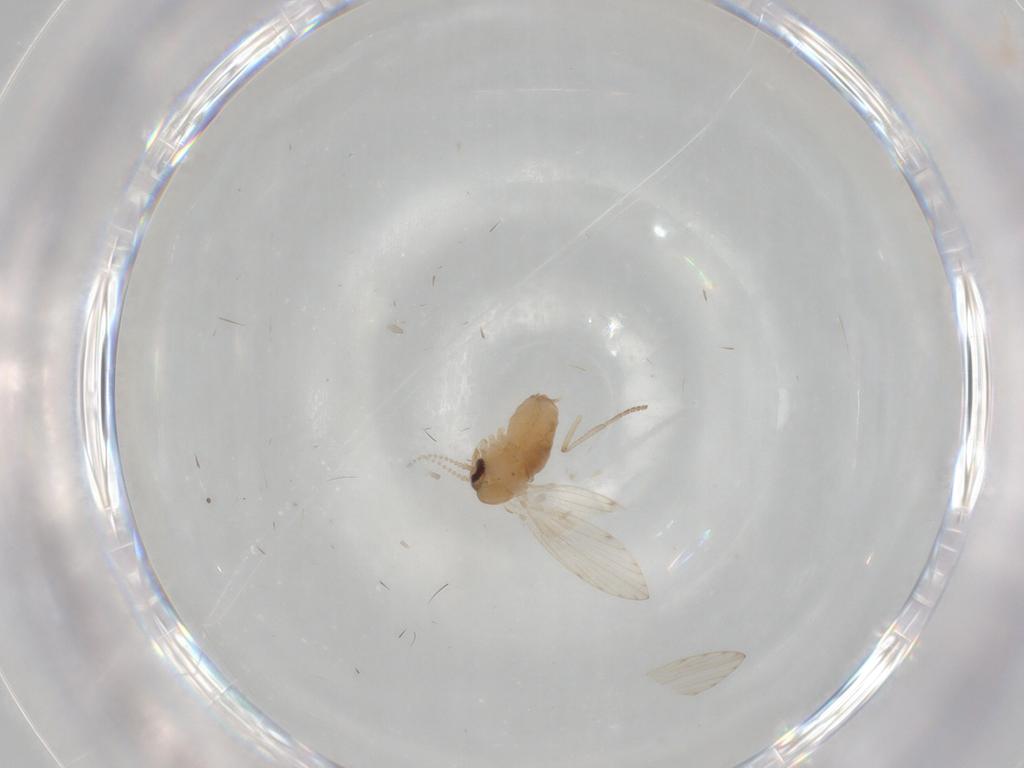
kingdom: Animalia
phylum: Arthropoda
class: Insecta
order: Diptera
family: Psychodidae
